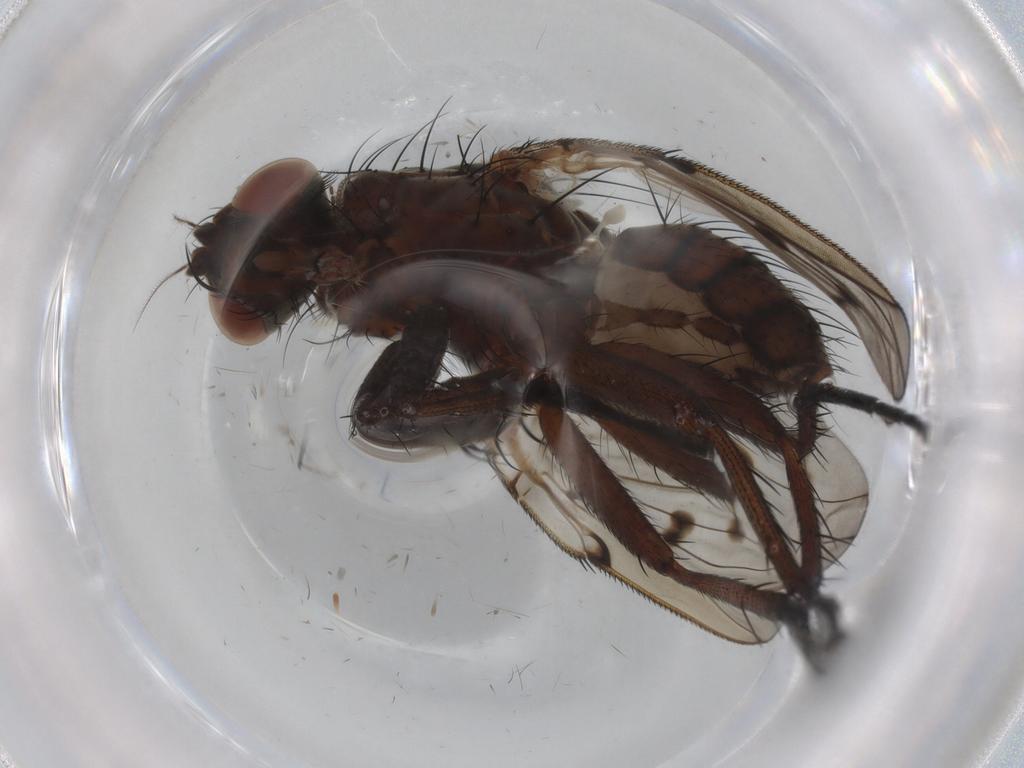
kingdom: Animalia
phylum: Arthropoda
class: Insecta
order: Diptera
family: Anthomyiidae
